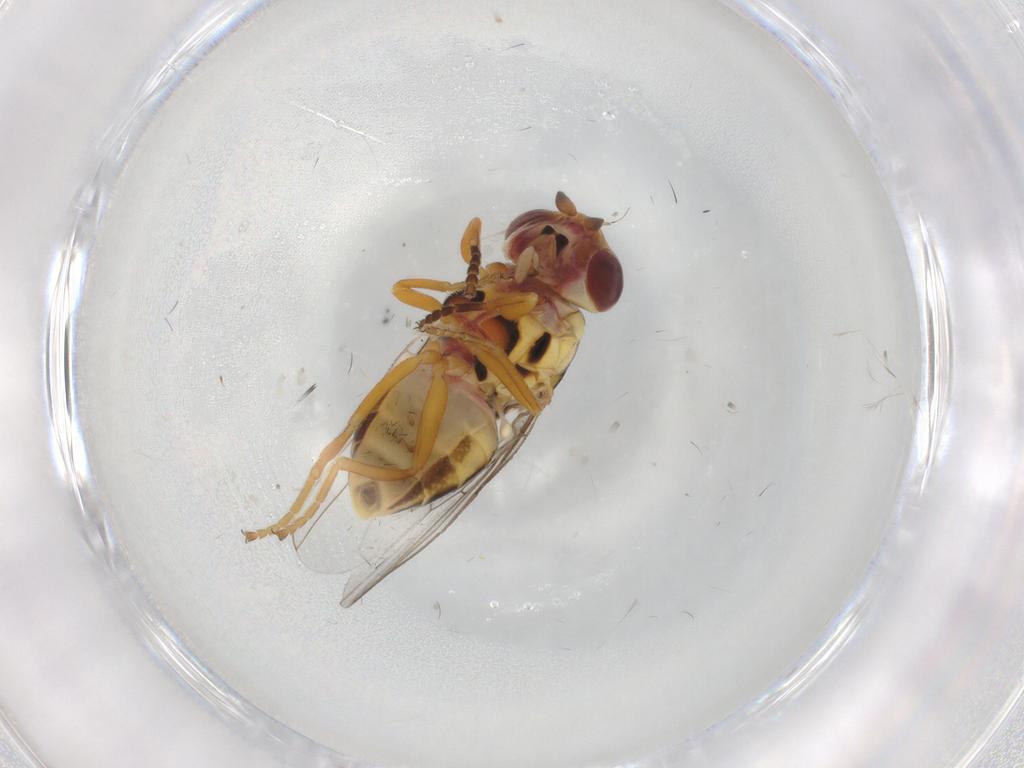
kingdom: Animalia
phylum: Arthropoda
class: Insecta
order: Diptera
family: Chloropidae
